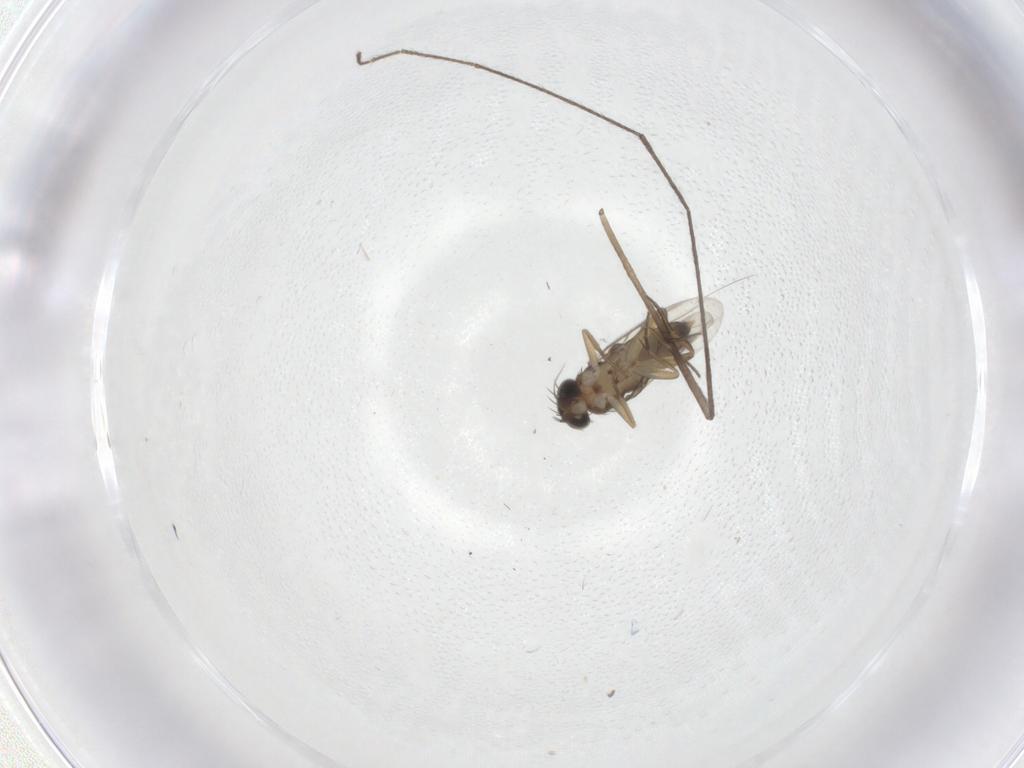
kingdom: Animalia
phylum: Arthropoda
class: Insecta
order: Diptera
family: Phoridae
